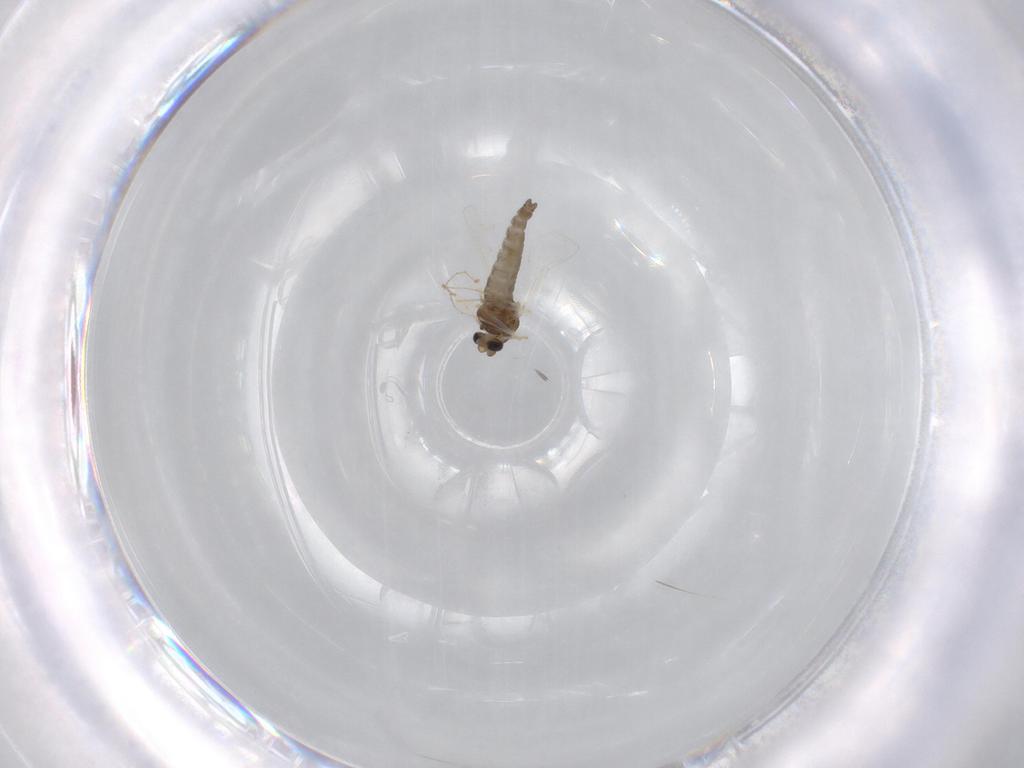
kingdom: Animalia
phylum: Arthropoda
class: Insecta
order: Diptera
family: Chironomidae
